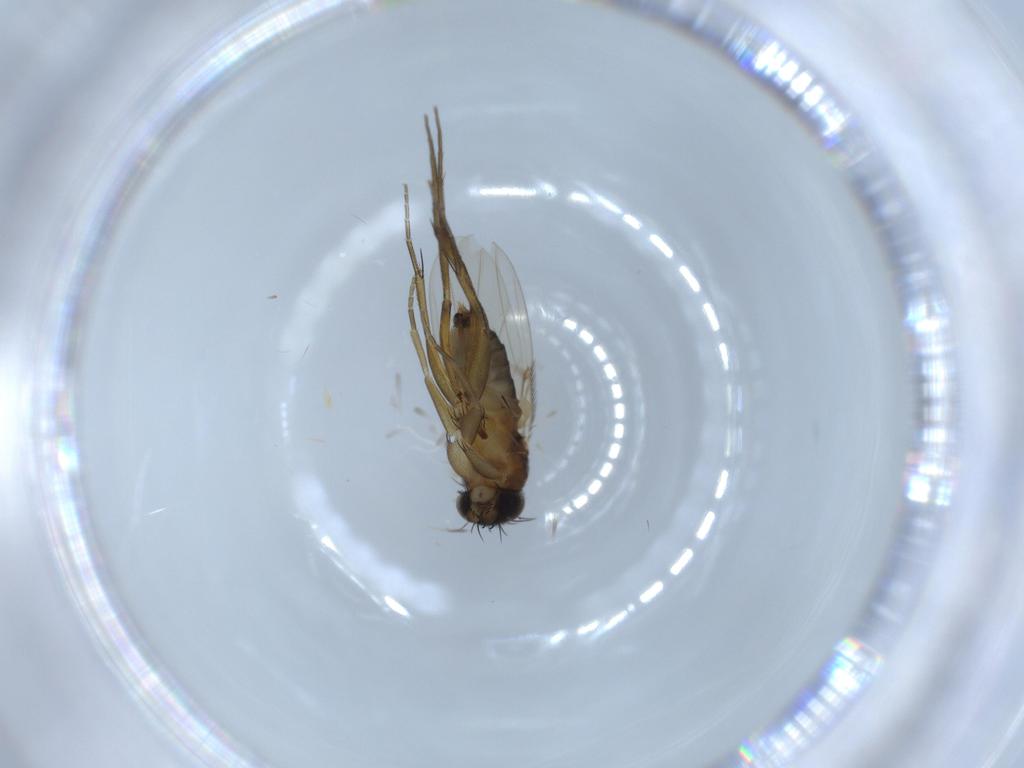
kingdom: Animalia
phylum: Arthropoda
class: Insecta
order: Diptera
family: Phoridae
